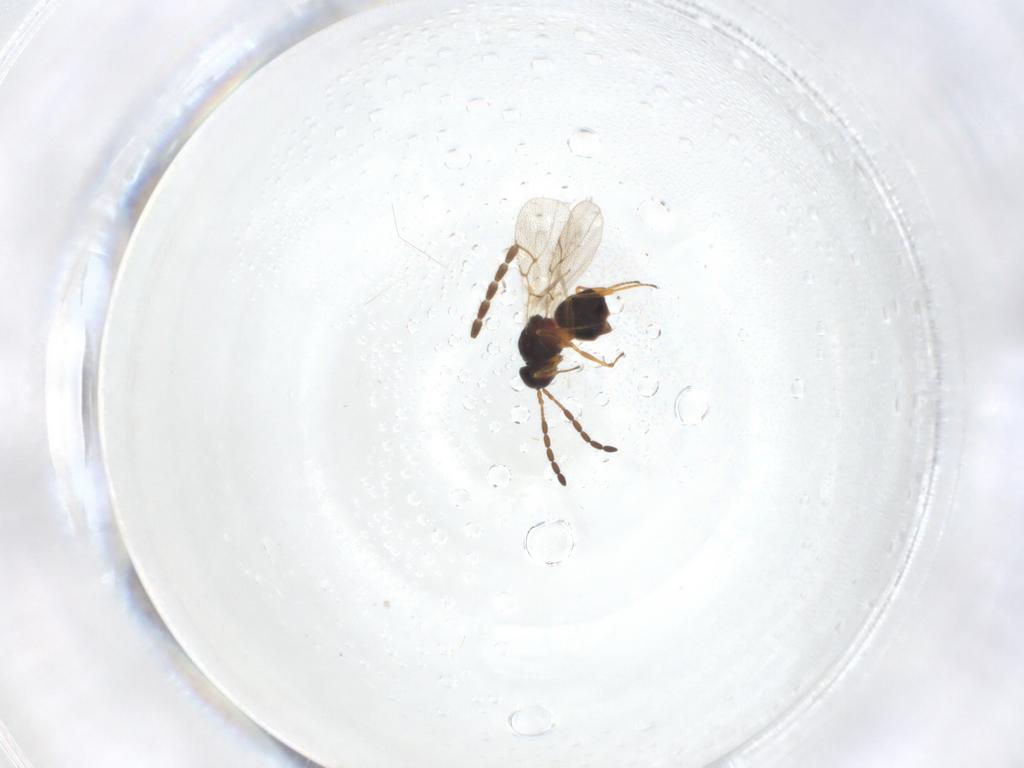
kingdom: Animalia
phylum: Arthropoda
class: Insecta
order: Hymenoptera
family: Figitidae
